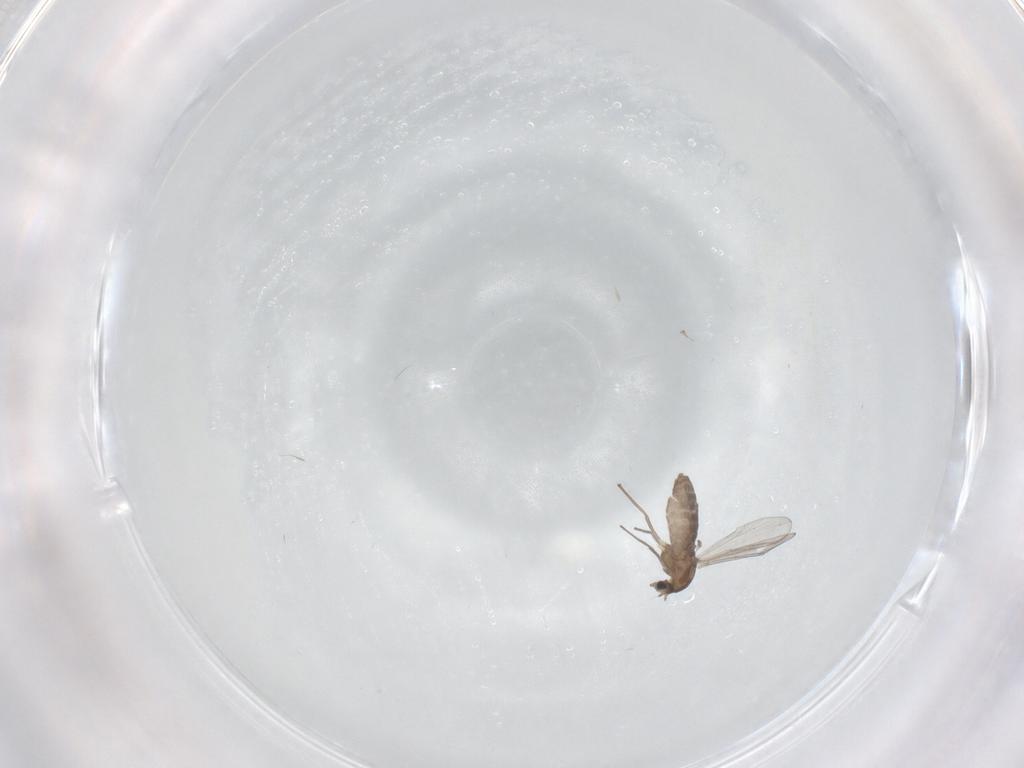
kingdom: Animalia
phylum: Arthropoda
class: Insecta
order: Diptera
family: Chironomidae
